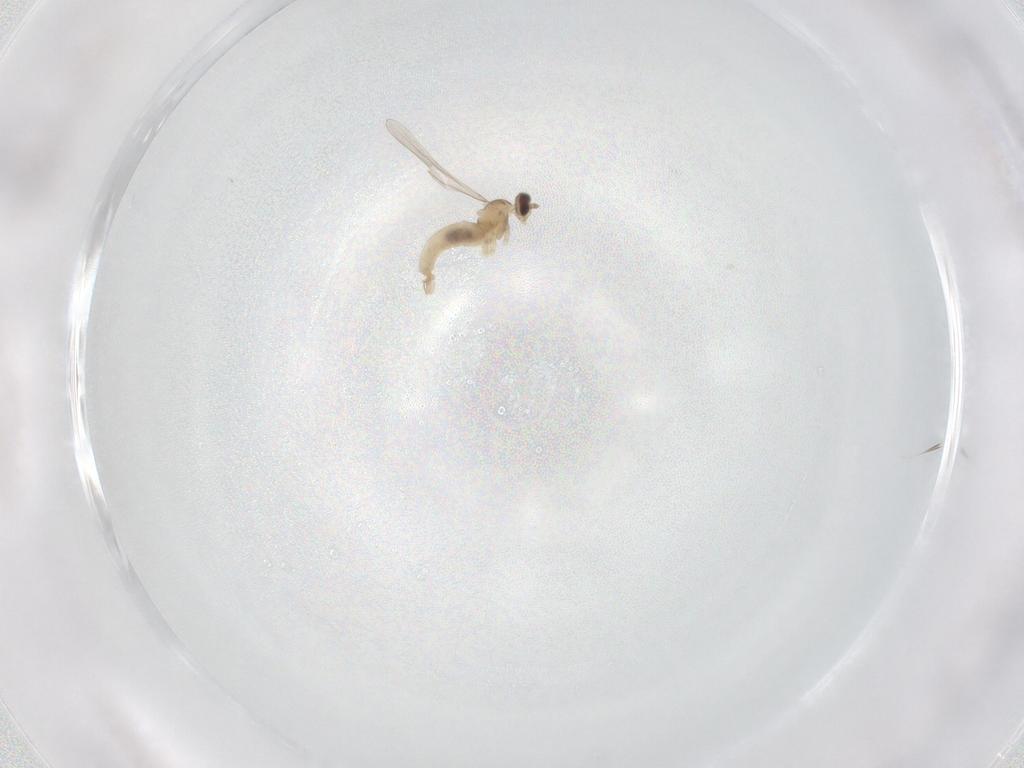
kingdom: Animalia
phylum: Arthropoda
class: Insecta
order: Diptera
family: Cecidomyiidae
